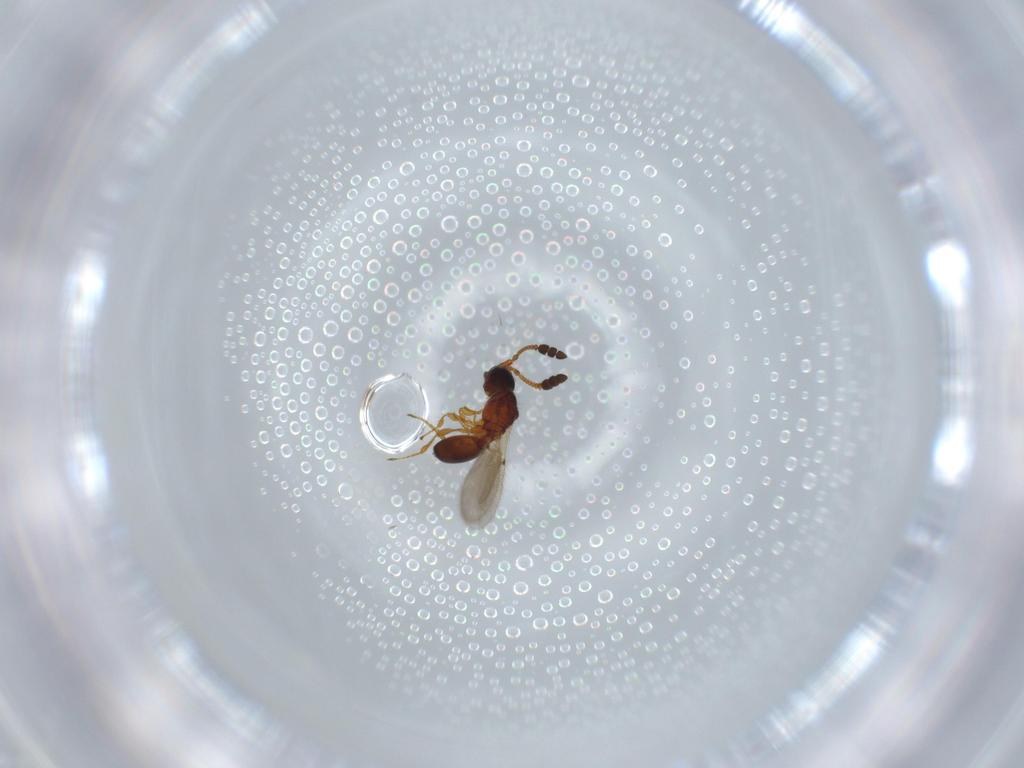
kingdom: Animalia
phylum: Arthropoda
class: Insecta
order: Hymenoptera
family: Diapriidae
